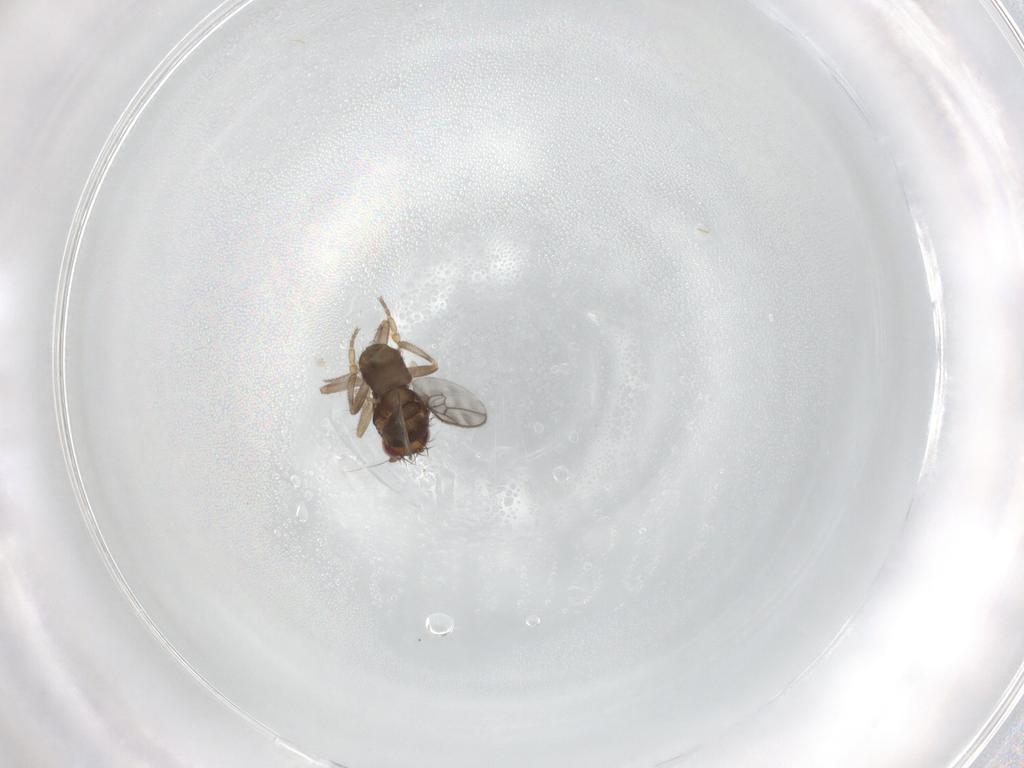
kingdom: Animalia
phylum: Arthropoda
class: Insecta
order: Diptera
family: Sphaeroceridae
